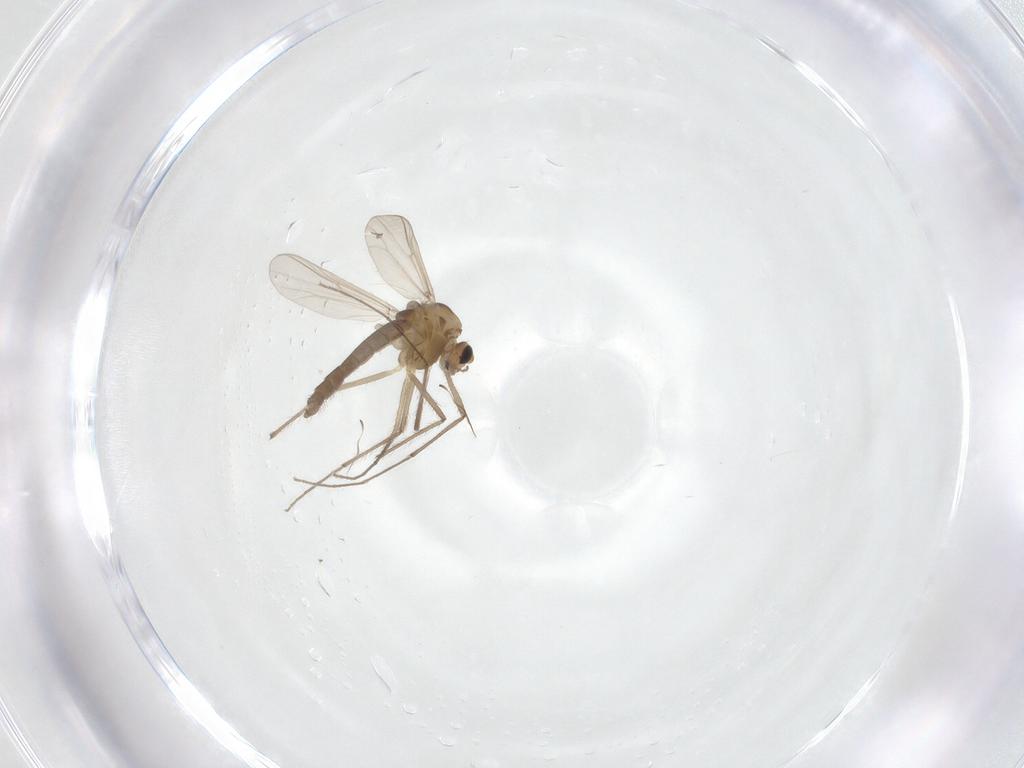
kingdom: Animalia
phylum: Arthropoda
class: Insecta
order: Diptera
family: Chironomidae
